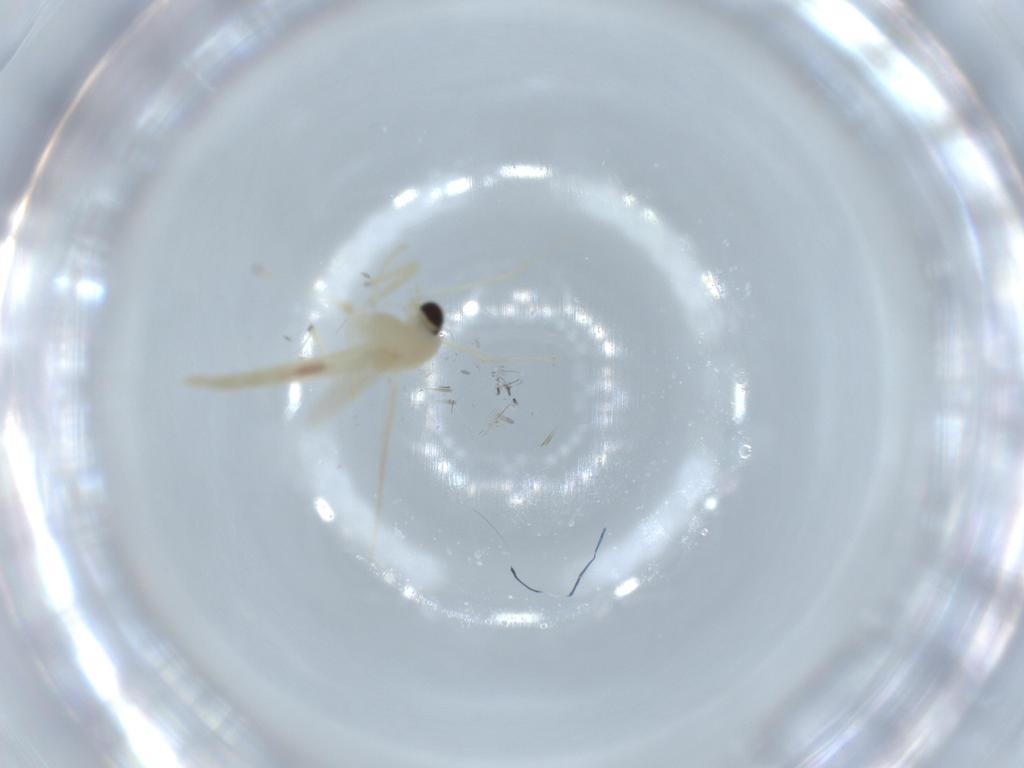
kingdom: Animalia
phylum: Arthropoda
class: Insecta
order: Diptera
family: Chironomidae
